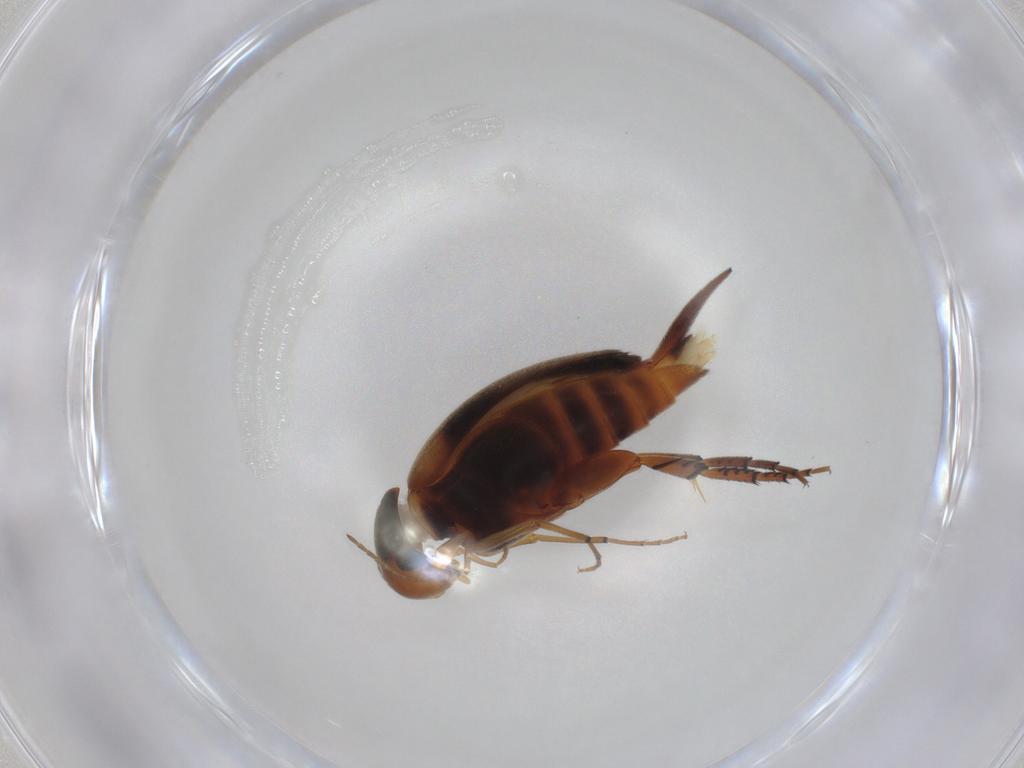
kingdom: Animalia
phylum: Arthropoda
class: Insecta
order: Coleoptera
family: Mordellidae
